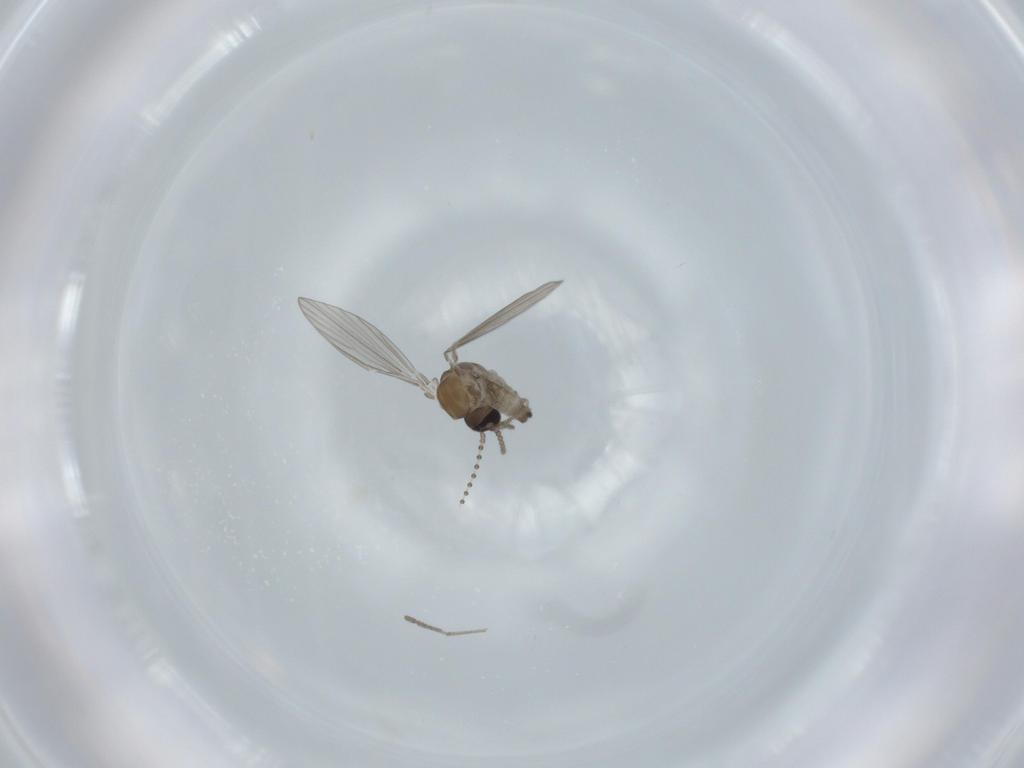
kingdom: Animalia
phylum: Arthropoda
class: Insecta
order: Diptera
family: Psychodidae
